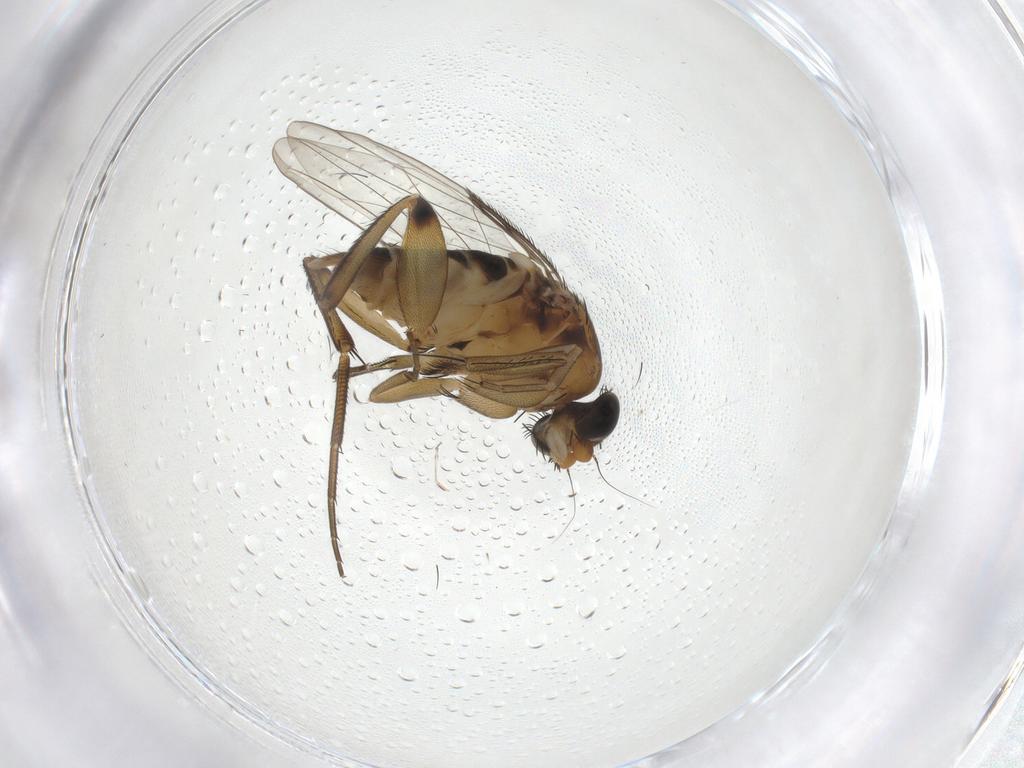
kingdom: Animalia
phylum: Arthropoda
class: Insecta
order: Diptera
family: Phoridae
